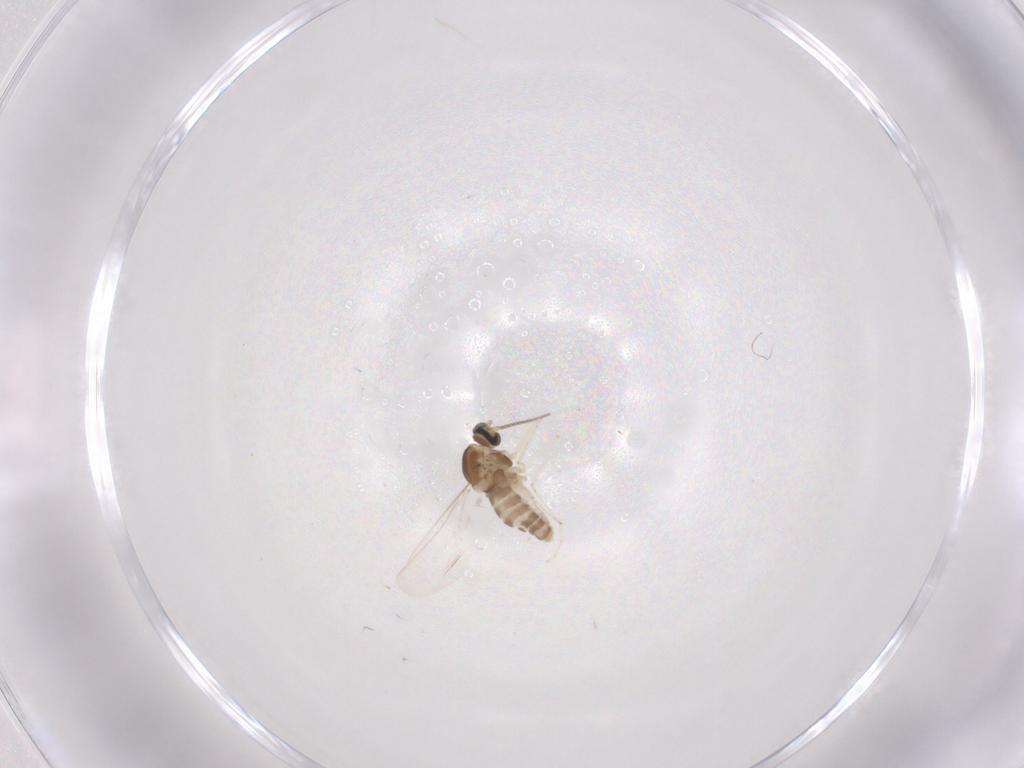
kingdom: Animalia
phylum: Arthropoda
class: Insecta
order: Diptera
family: Cecidomyiidae
